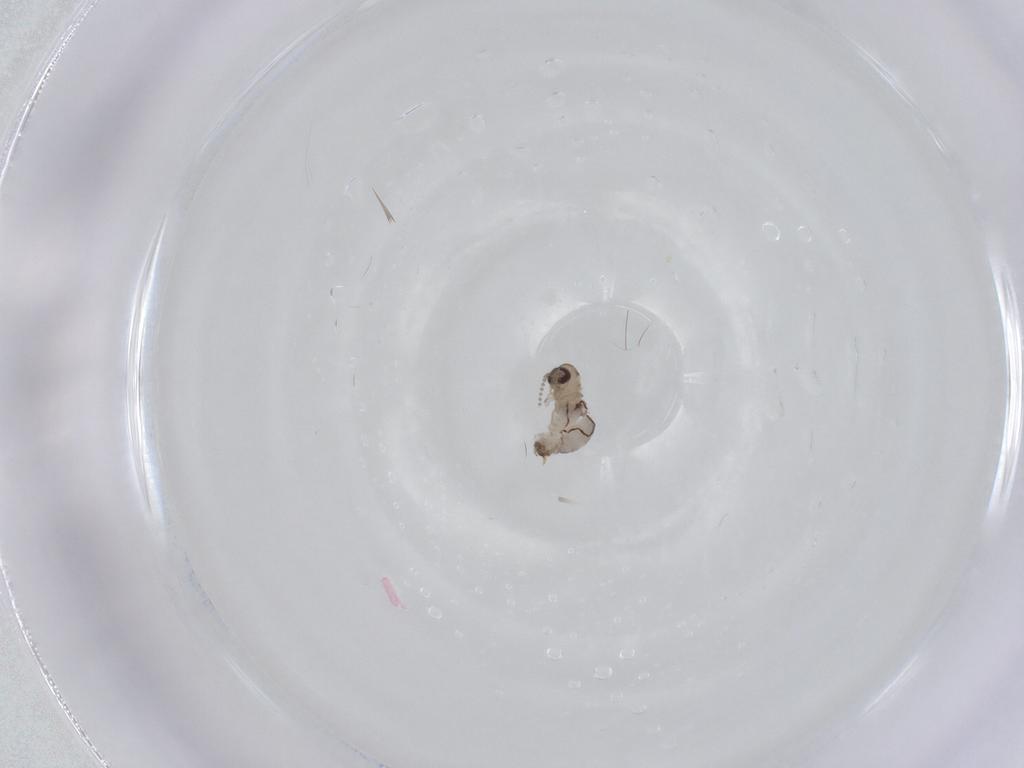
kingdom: Animalia
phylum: Arthropoda
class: Insecta
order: Diptera
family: Psychodidae
